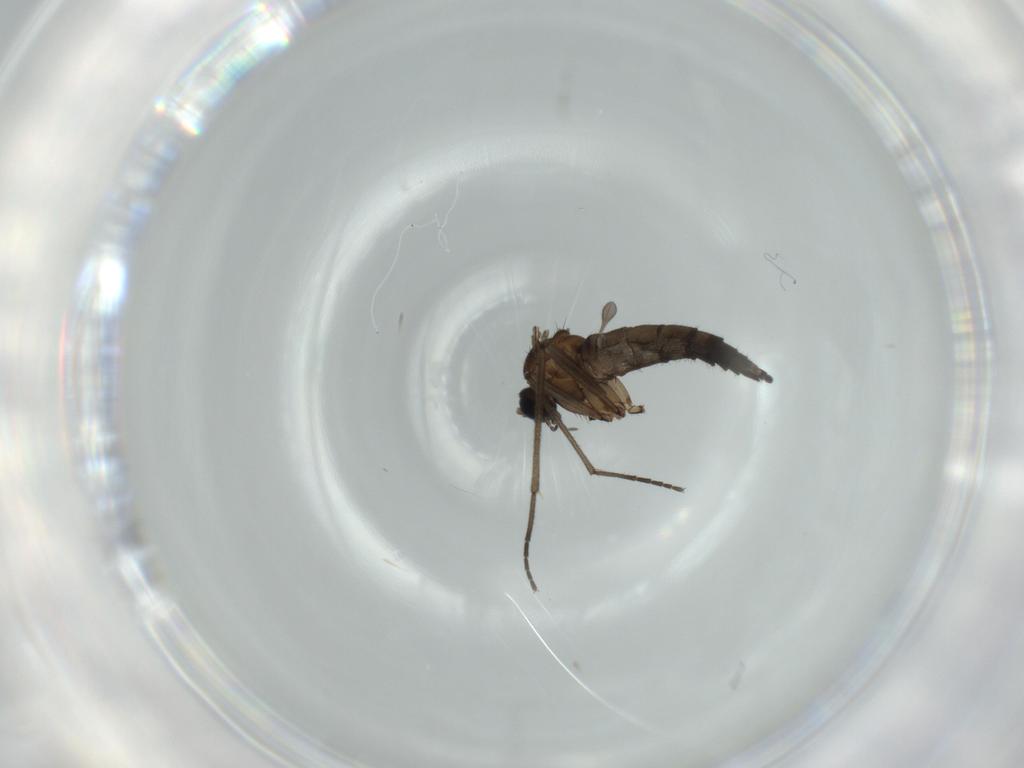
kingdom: Animalia
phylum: Arthropoda
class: Insecta
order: Diptera
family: Sciaridae
